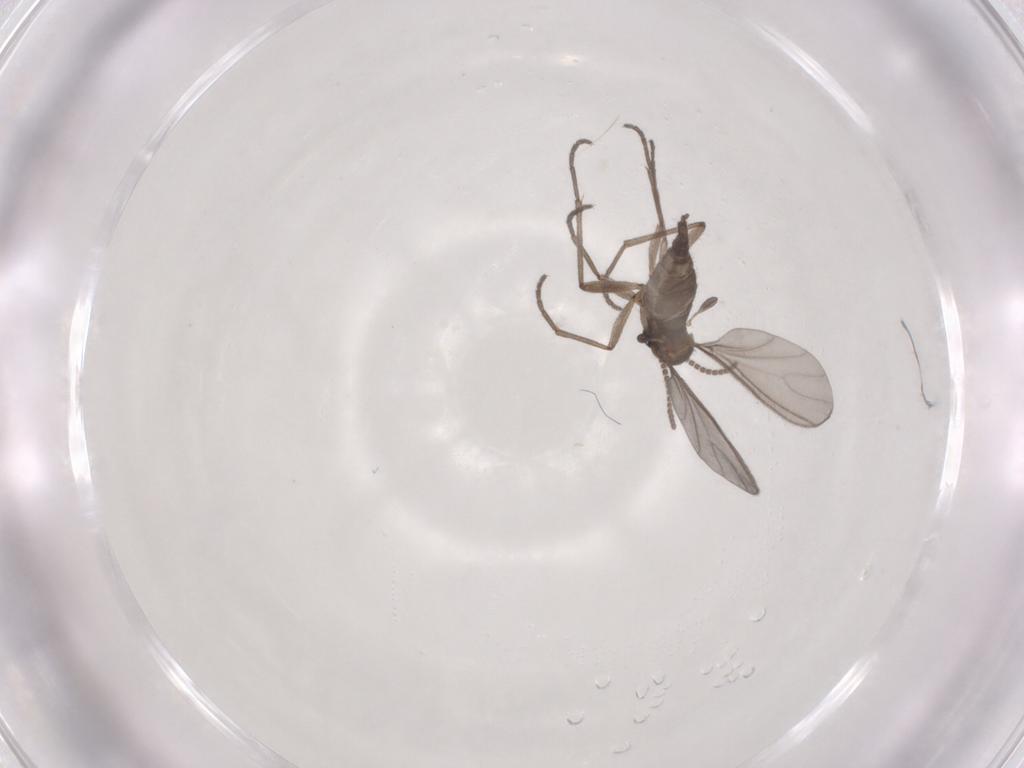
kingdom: Animalia
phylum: Arthropoda
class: Insecta
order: Diptera
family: Sciaridae
